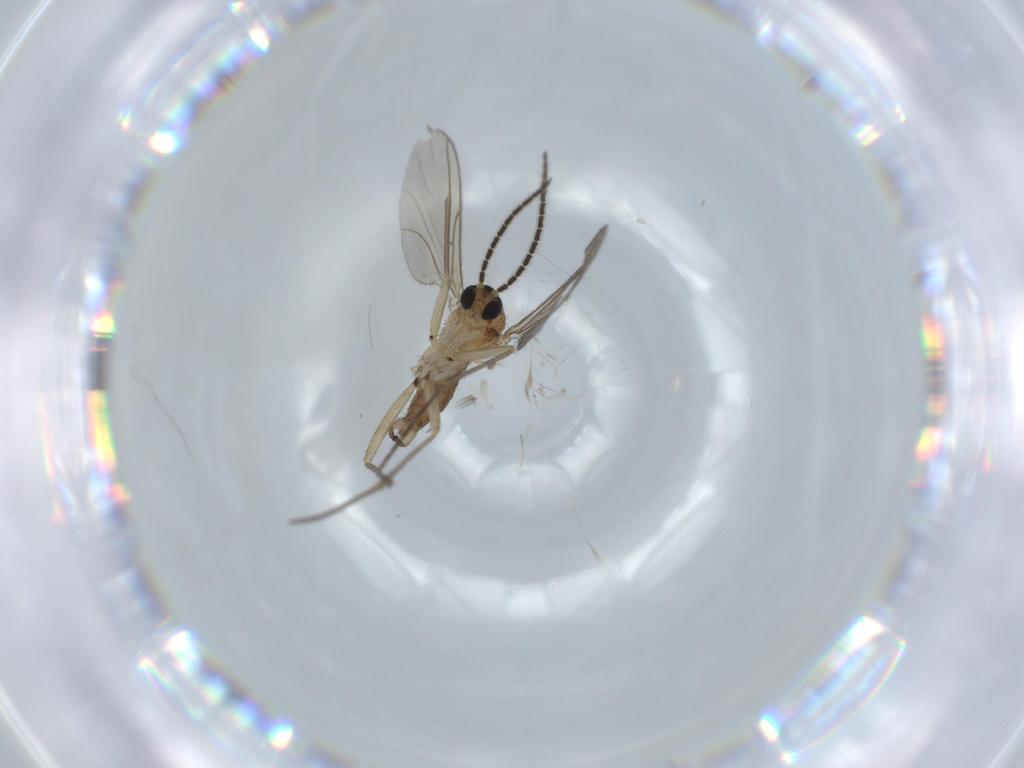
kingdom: Animalia
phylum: Arthropoda
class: Insecta
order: Diptera
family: Sciaridae
